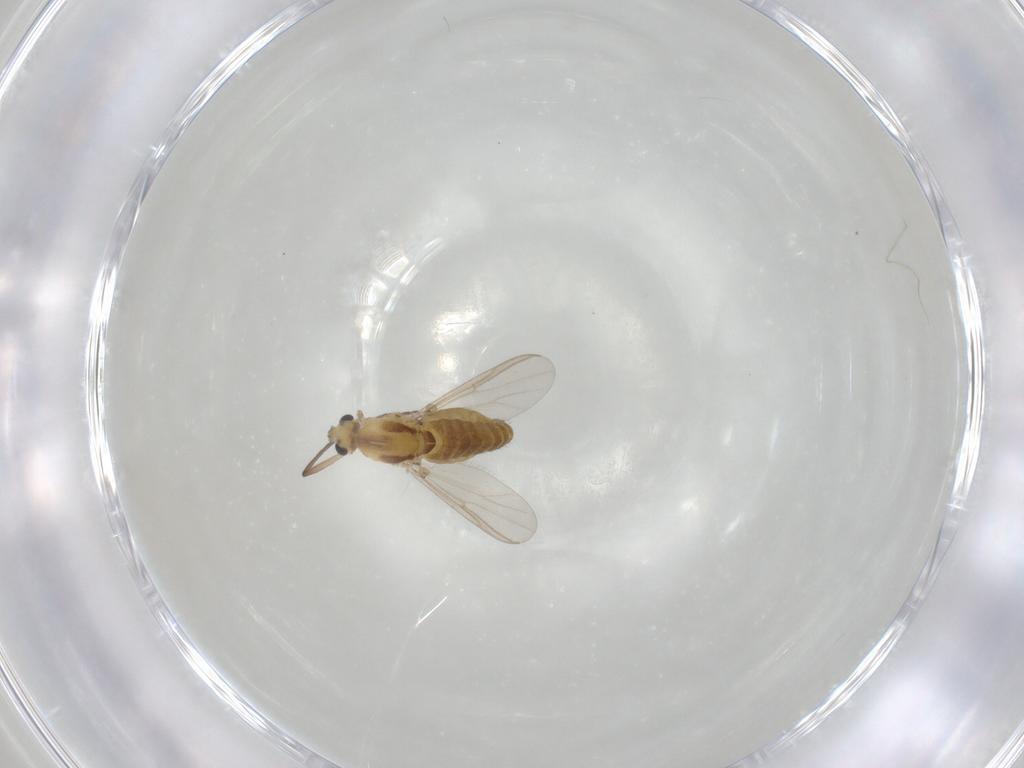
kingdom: Animalia
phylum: Arthropoda
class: Insecta
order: Diptera
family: Chironomidae
